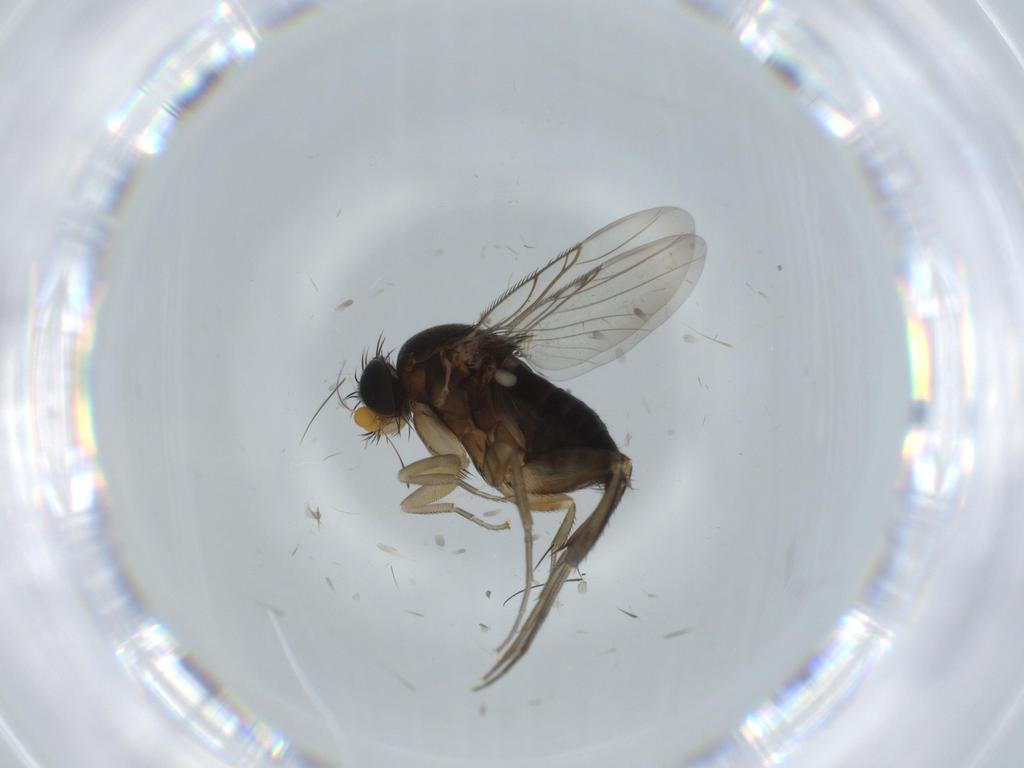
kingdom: Animalia
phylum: Arthropoda
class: Insecta
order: Diptera
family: Phoridae
